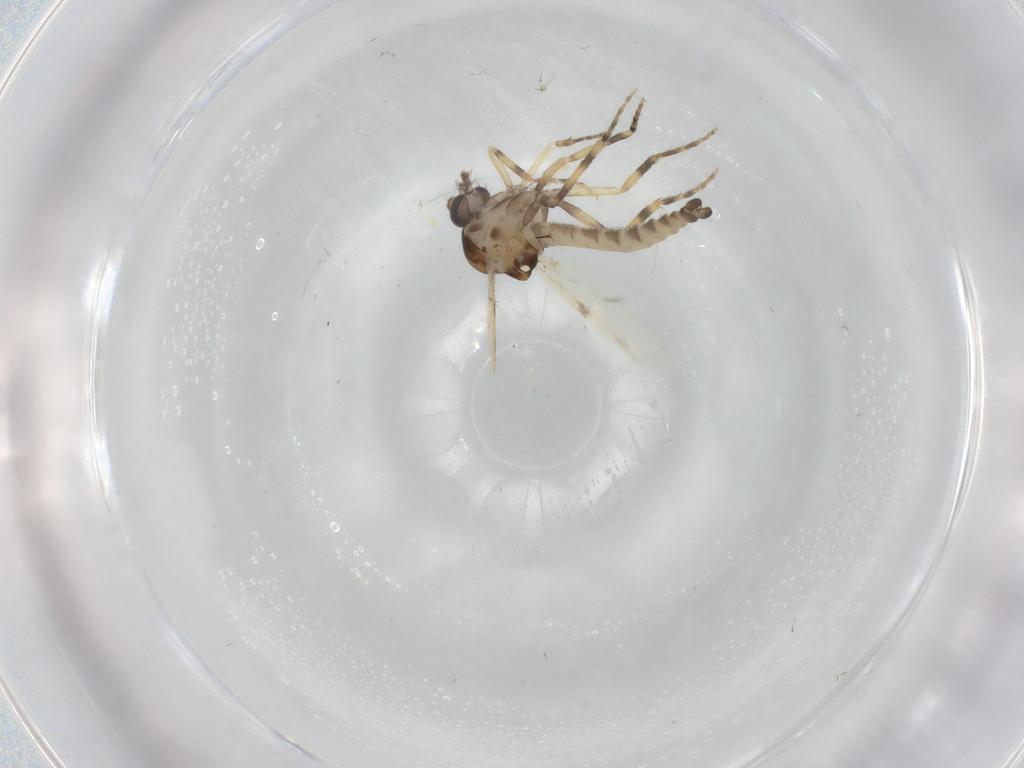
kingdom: Animalia
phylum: Arthropoda
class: Insecta
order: Diptera
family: Ceratopogonidae
